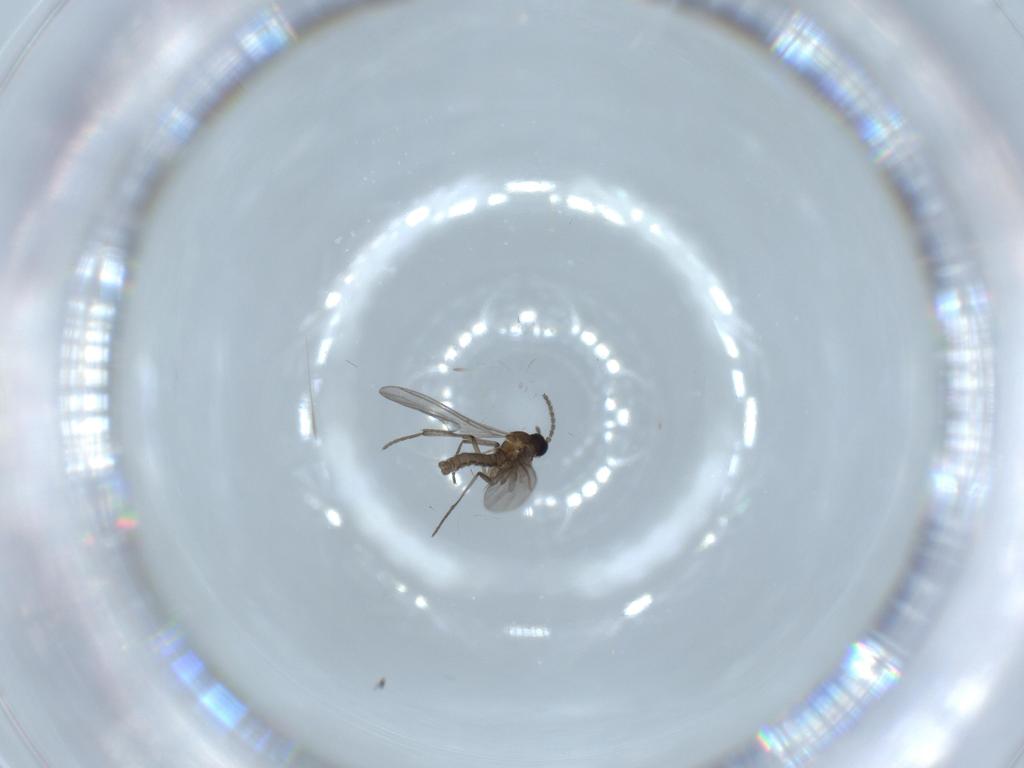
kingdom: Animalia
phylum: Arthropoda
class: Insecta
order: Diptera
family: Sciaridae
